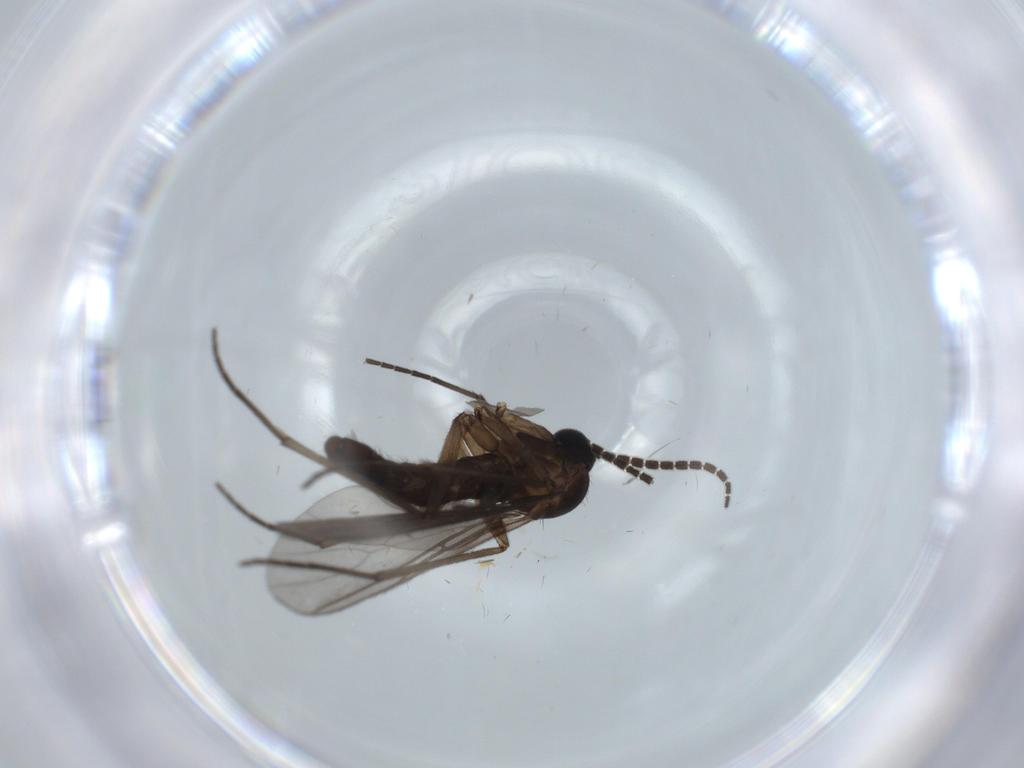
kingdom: Animalia
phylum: Arthropoda
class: Insecta
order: Diptera
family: Sciaridae
